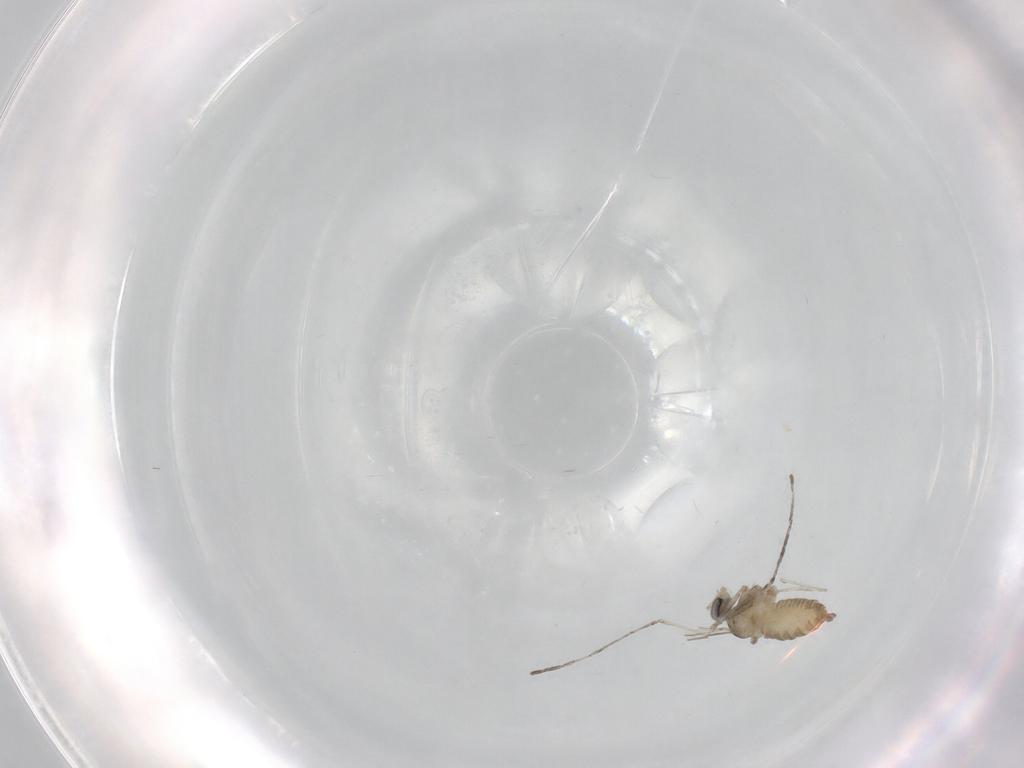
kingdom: Animalia
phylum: Arthropoda
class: Insecta
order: Diptera
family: Cecidomyiidae
